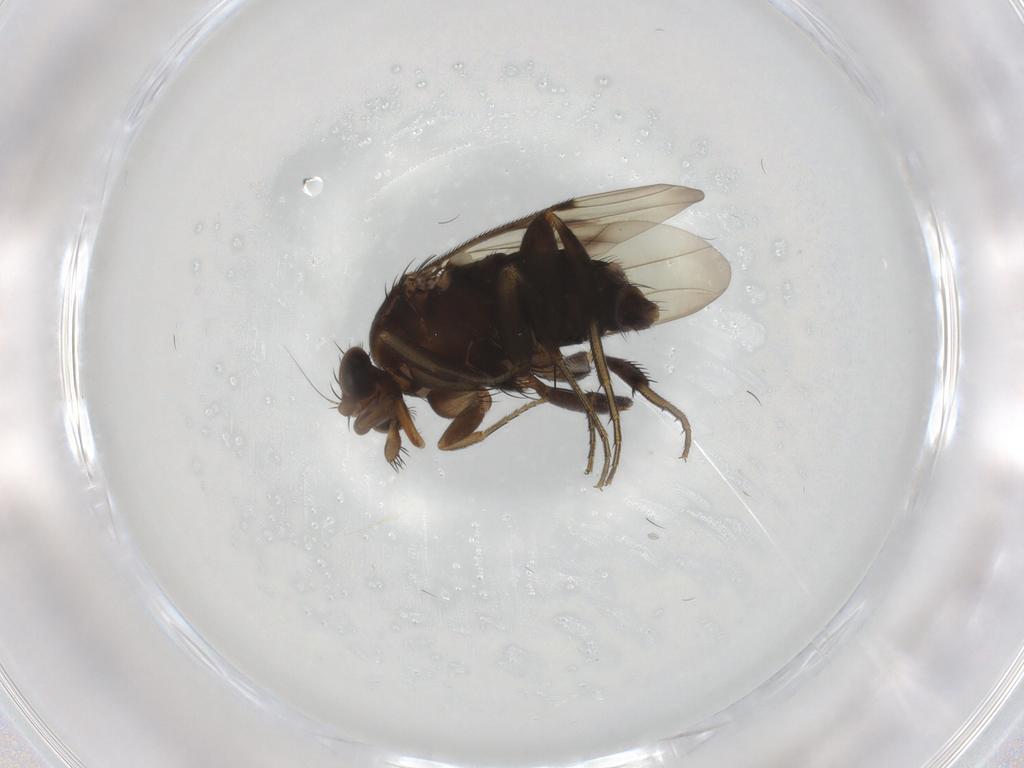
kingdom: Animalia
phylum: Arthropoda
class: Insecta
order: Diptera
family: Phoridae
